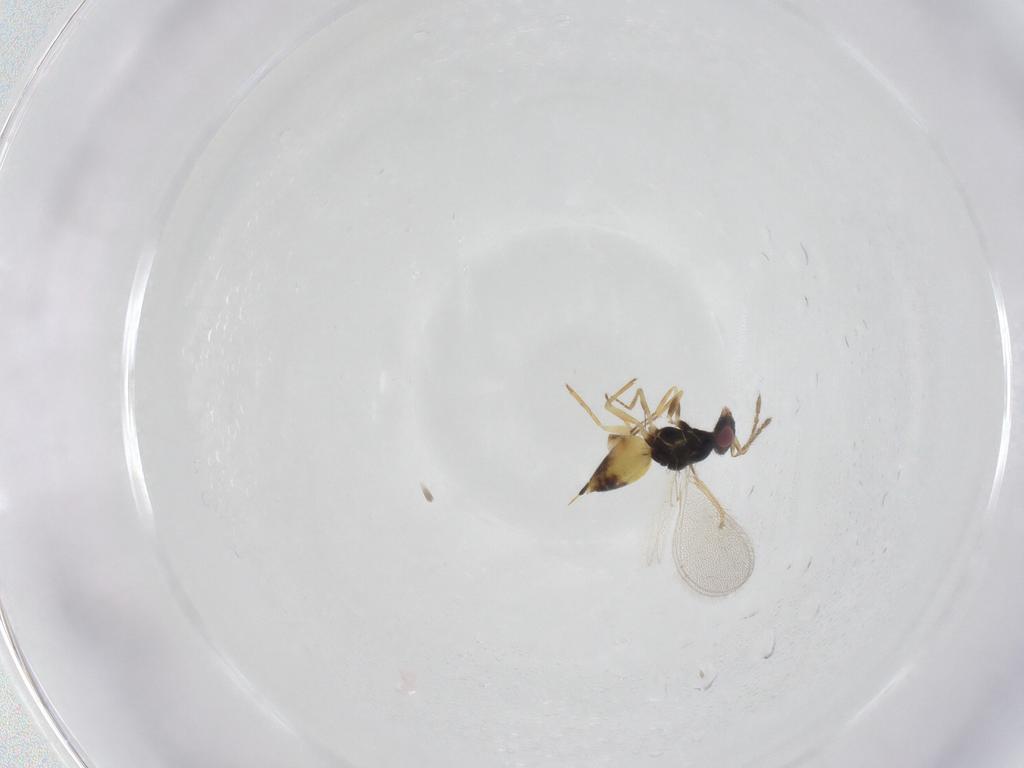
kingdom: Animalia
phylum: Arthropoda
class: Insecta
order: Hymenoptera
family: Eulophidae
